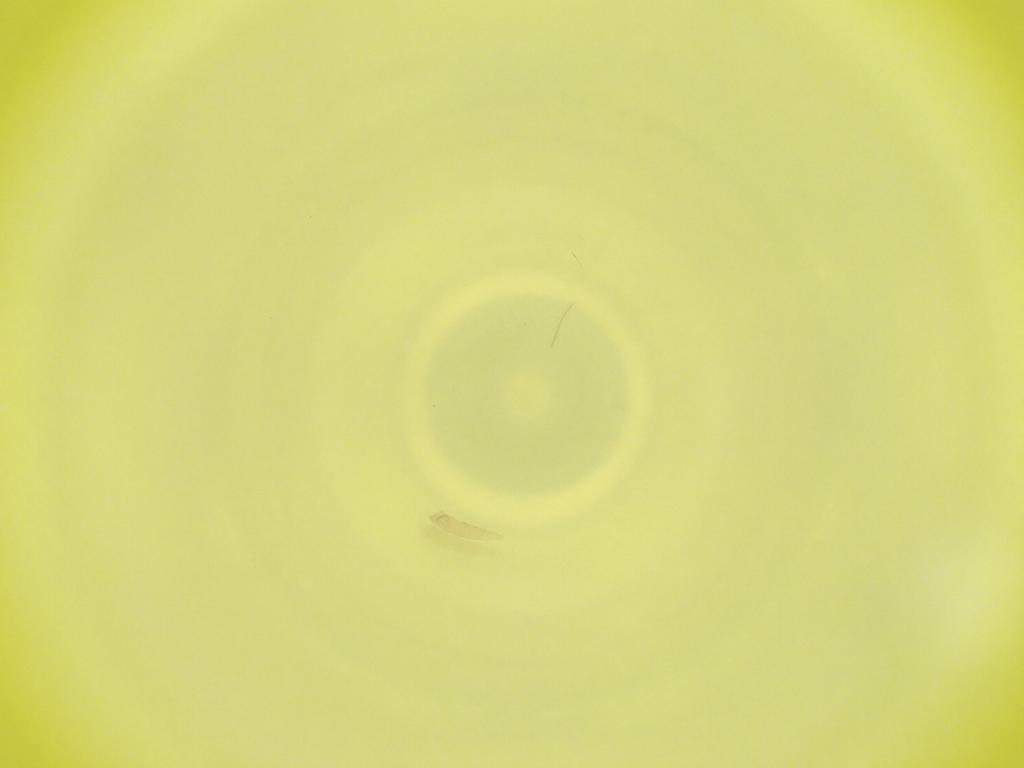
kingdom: Animalia
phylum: Arthropoda
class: Insecta
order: Diptera
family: Cecidomyiidae
